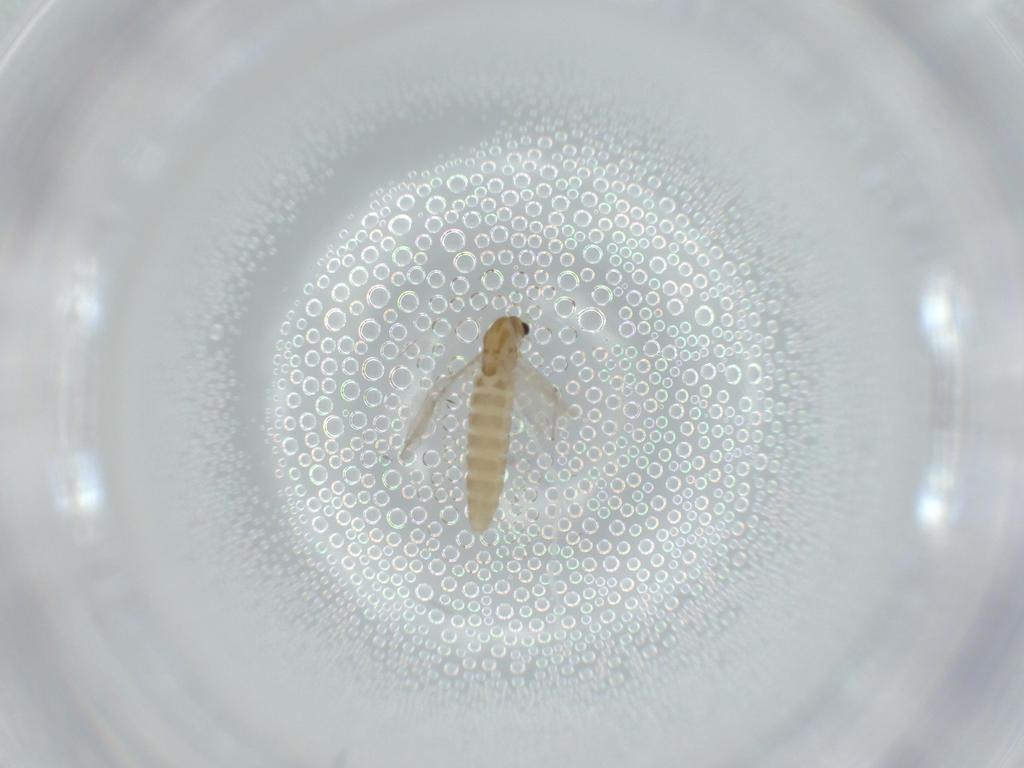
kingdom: Animalia
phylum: Arthropoda
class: Insecta
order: Diptera
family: Chironomidae
